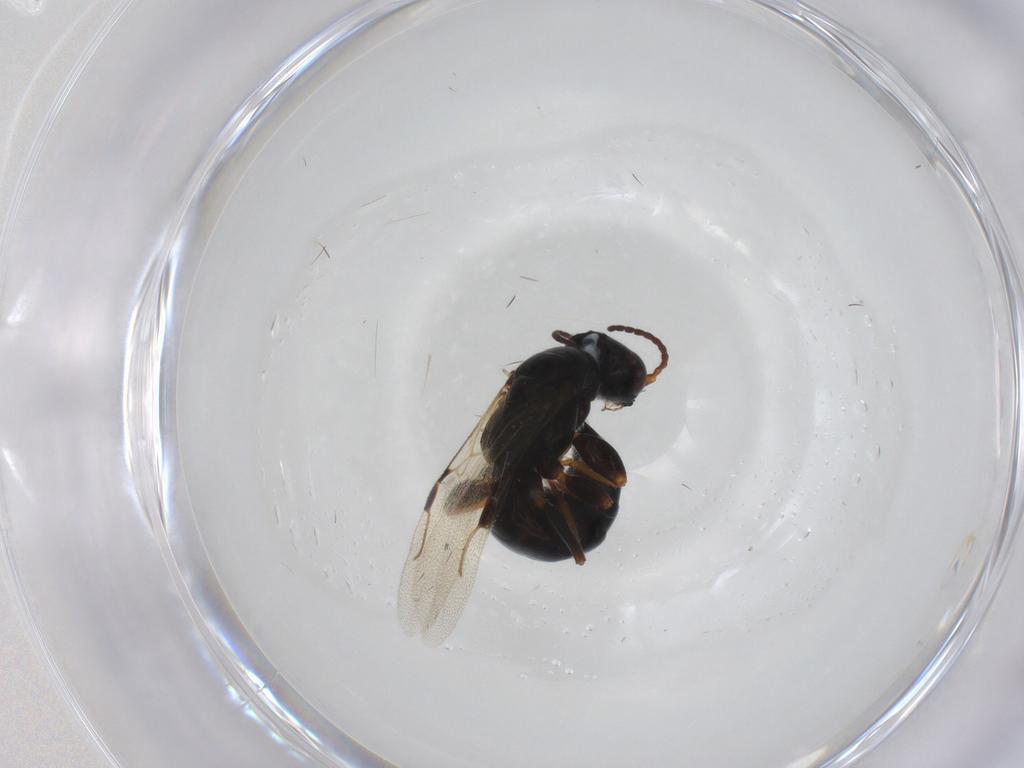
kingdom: Animalia
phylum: Arthropoda
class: Insecta
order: Hymenoptera
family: Bethylidae
